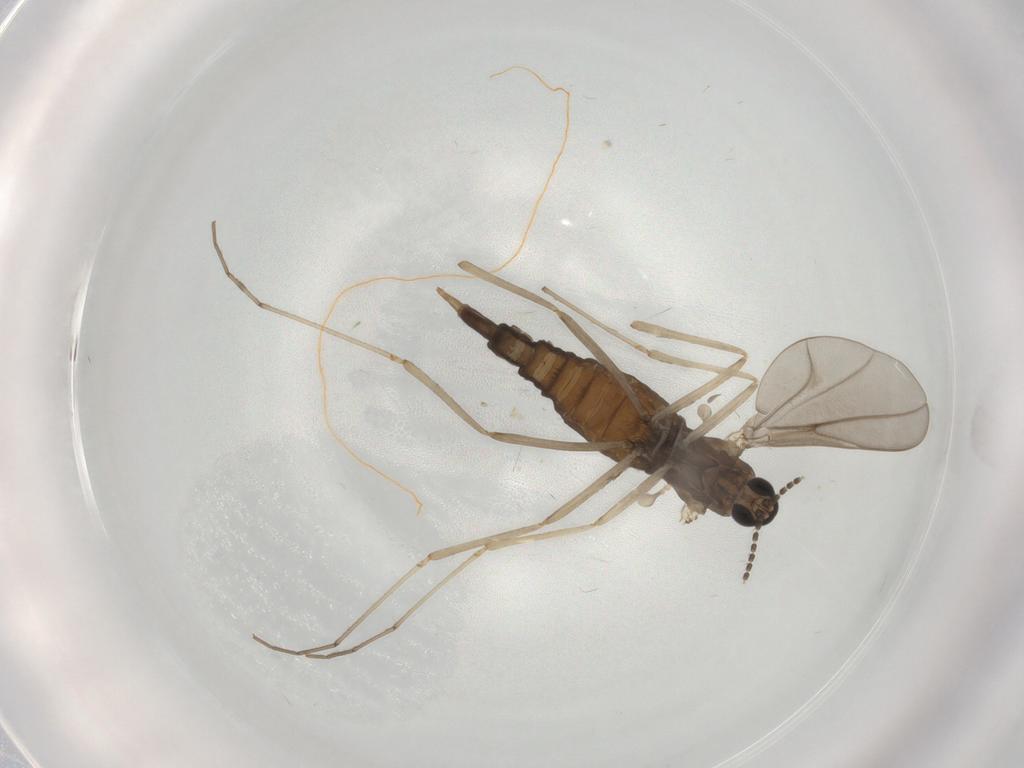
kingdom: Animalia
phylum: Arthropoda
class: Insecta
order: Diptera
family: Cecidomyiidae
